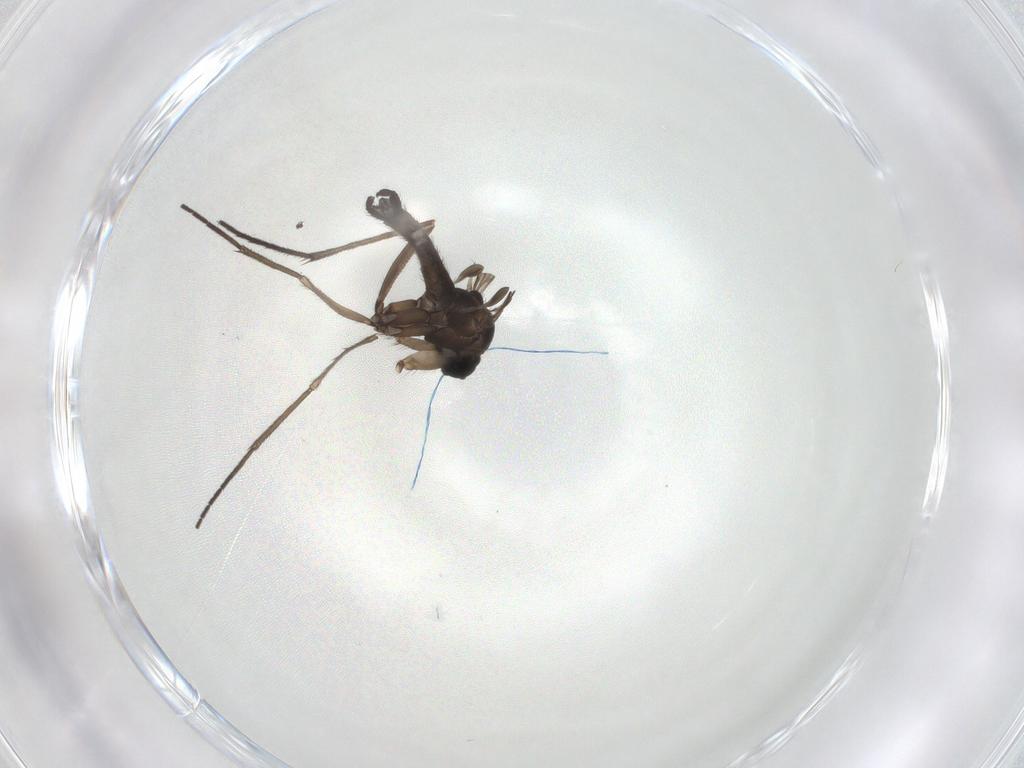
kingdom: Animalia
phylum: Arthropoda
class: Insecta
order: Diptera
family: Sciaridae
